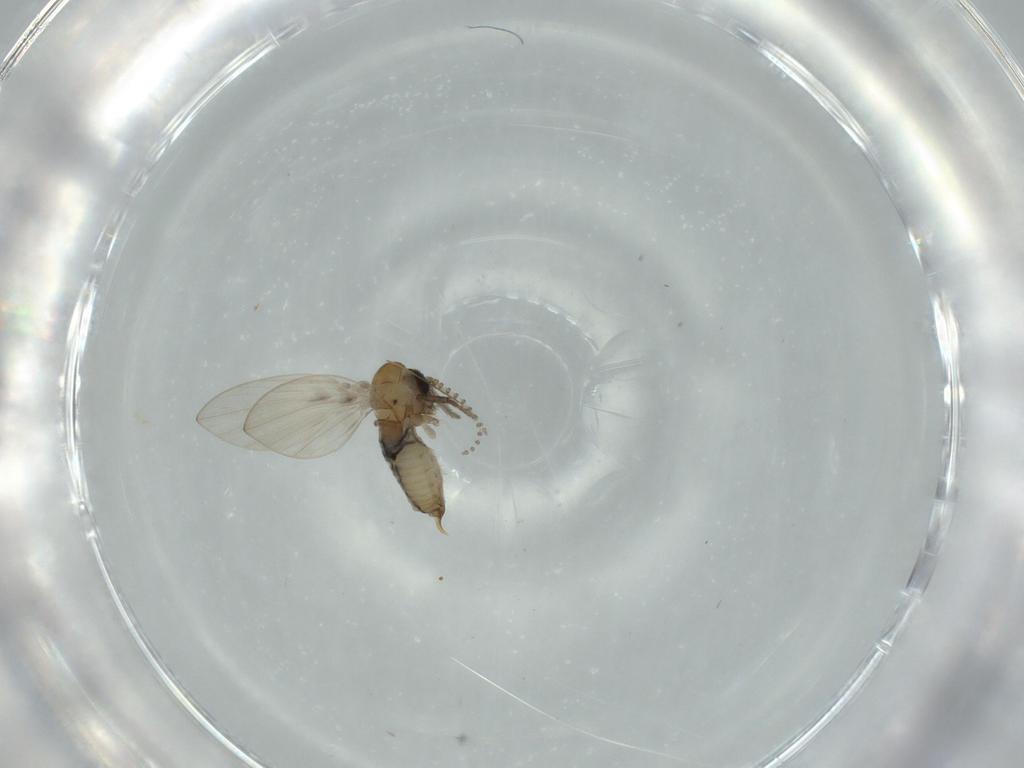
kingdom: Animalia
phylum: Arthropoda
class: Insecta
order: Diptera
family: Psychodidae
